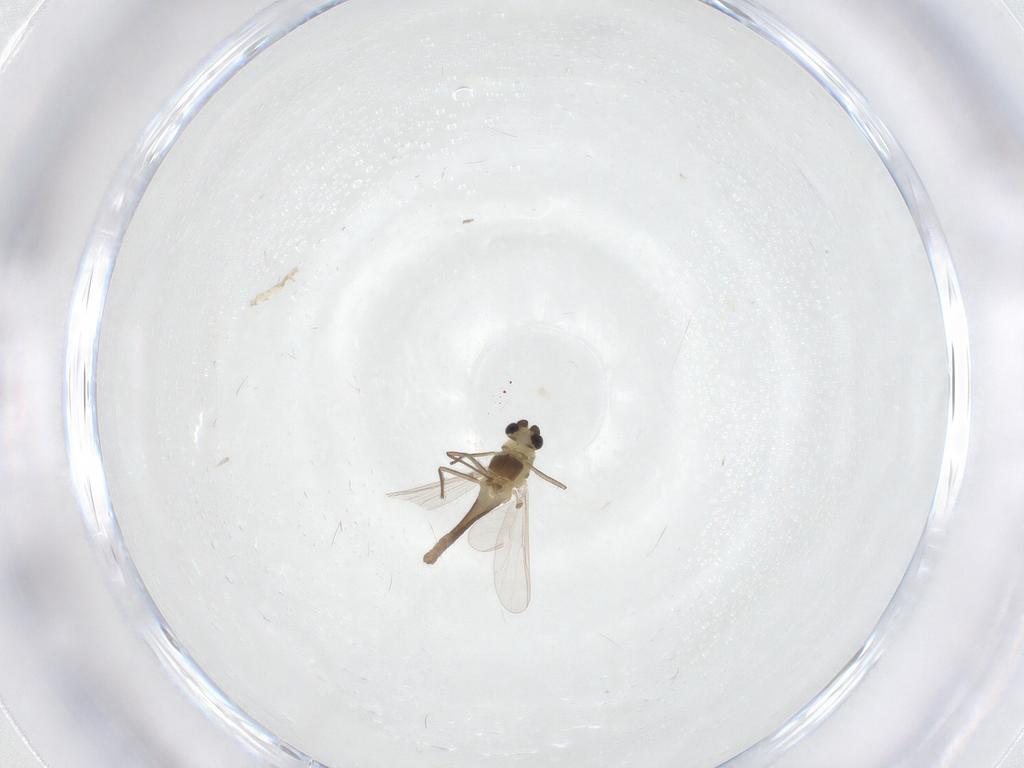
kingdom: Animalia
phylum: Arthropoda
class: Insecta
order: Diptera
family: Chironomidae
